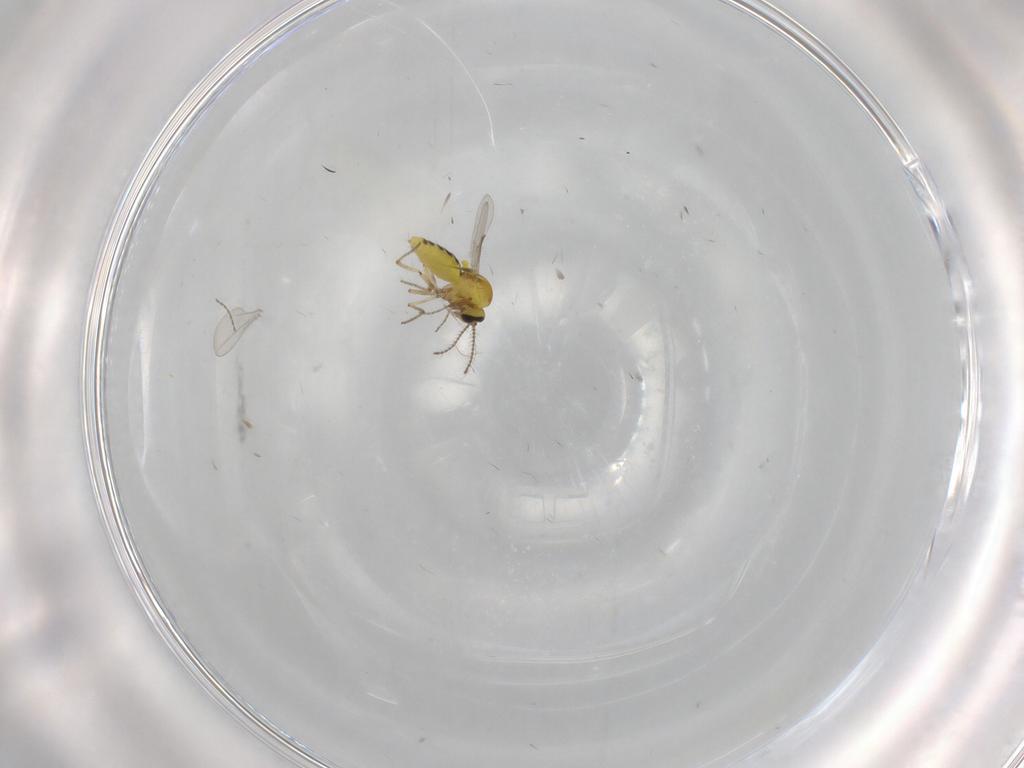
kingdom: Animalia
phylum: Arthropoda
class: Insecta
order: Diptera
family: Ceratopogonidae
